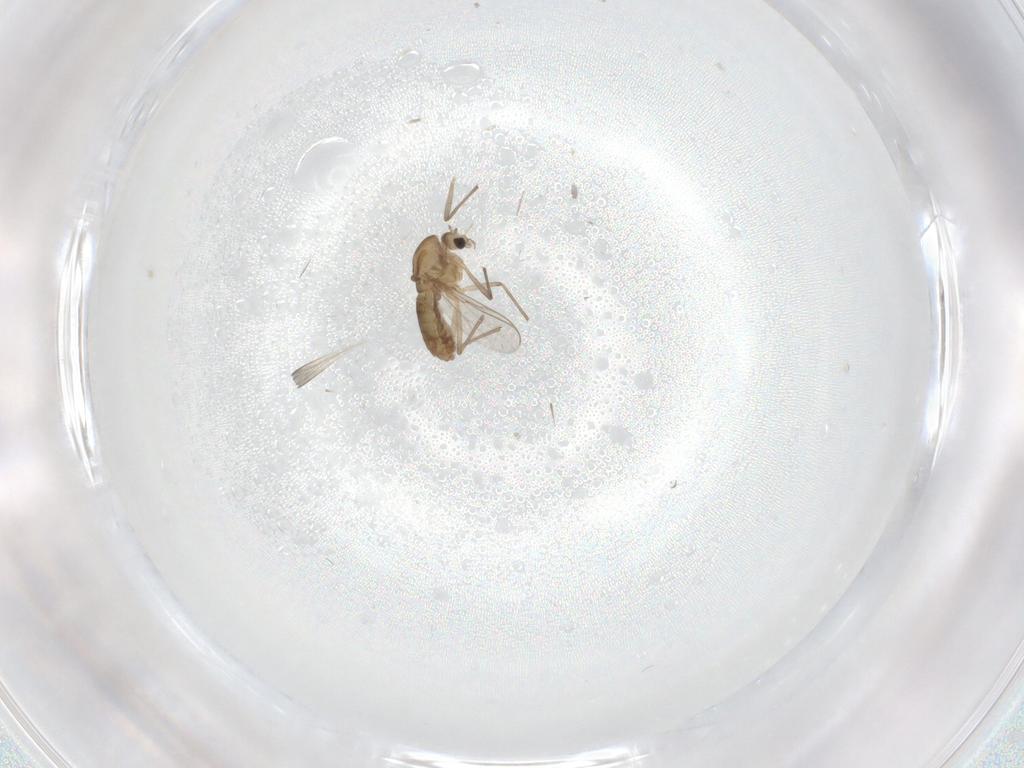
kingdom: Animalia
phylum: Arthropoda
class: Insecta
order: Diptera
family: Chironomidae
